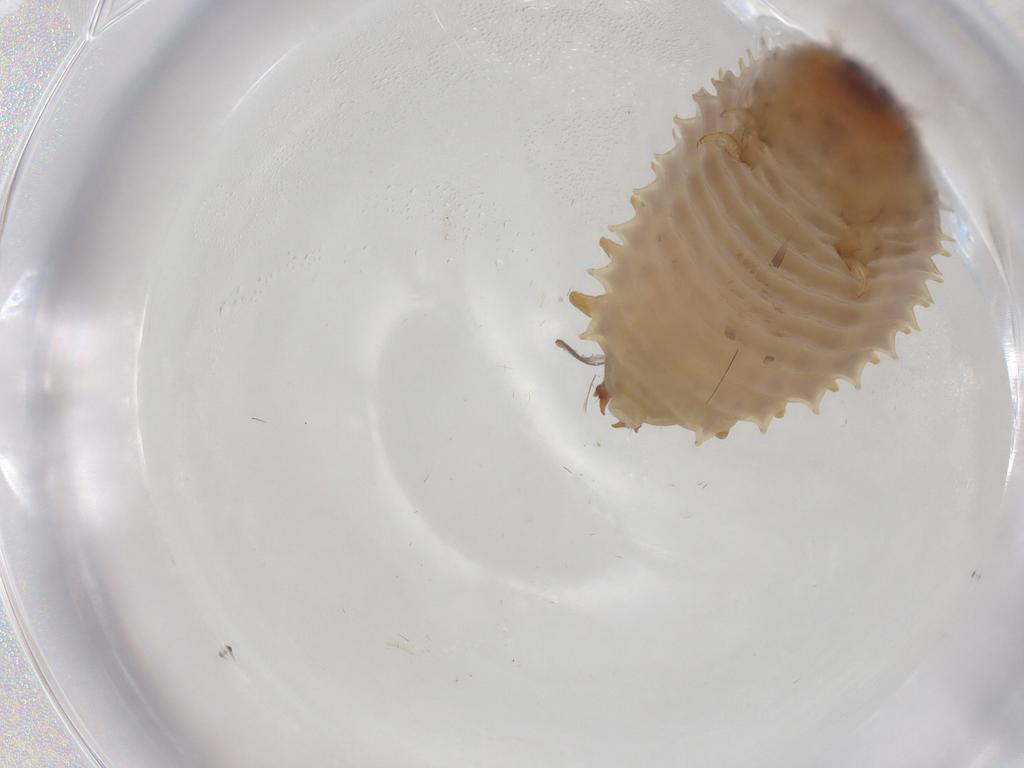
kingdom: Animalia
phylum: Arthropoda
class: Insecta
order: Coleoptera
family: Nitidulidae
